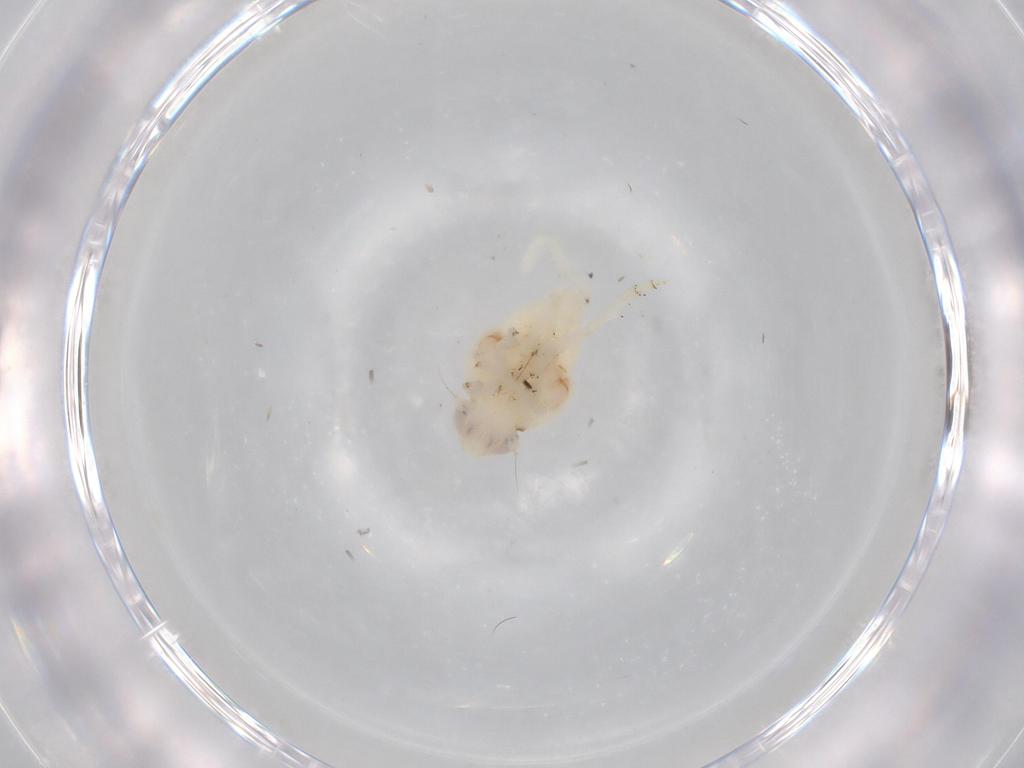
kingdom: Animalia
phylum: Arthropoda
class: Insecta
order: Hemiptera
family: Nogodinidae
